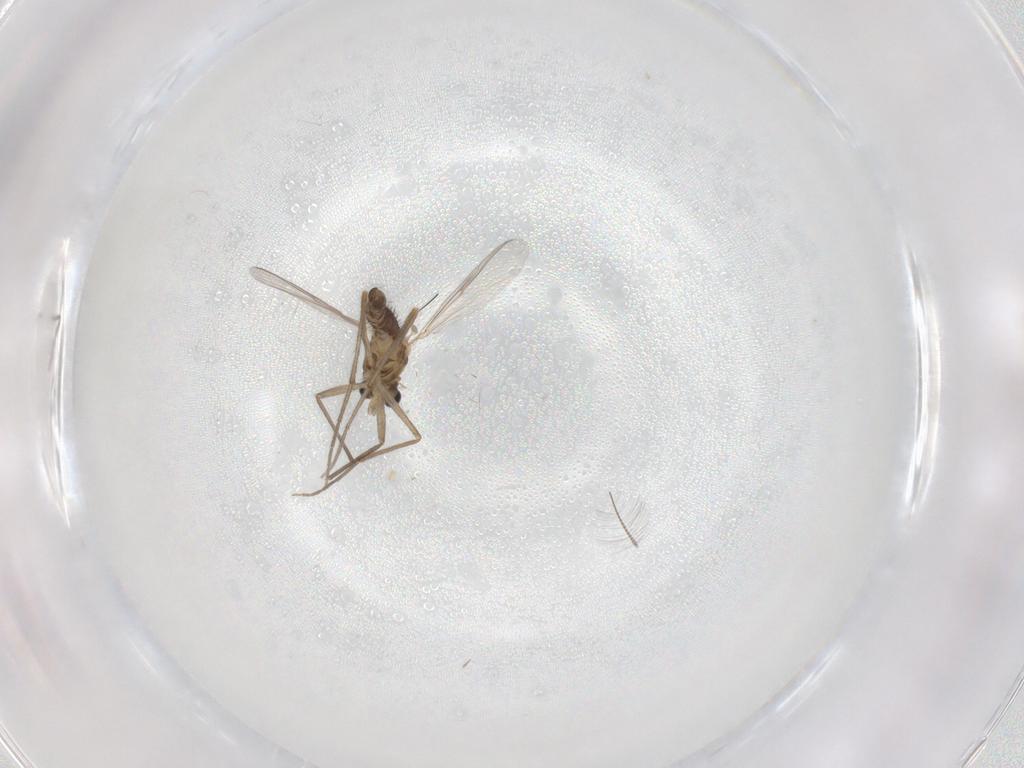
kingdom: Animalia
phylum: Arthropoda
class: Insecta
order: Diptera
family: Chironomidae
